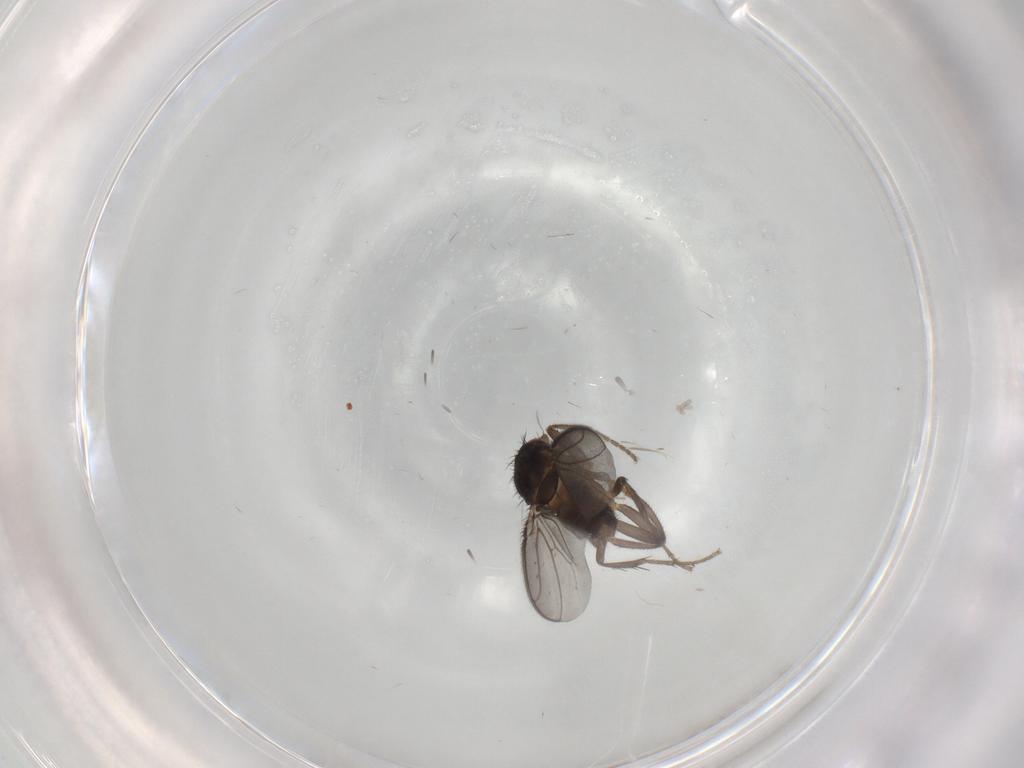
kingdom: Animalia
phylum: Arthropoda
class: Insecta
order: Diptera
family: Sphaeroceridae
